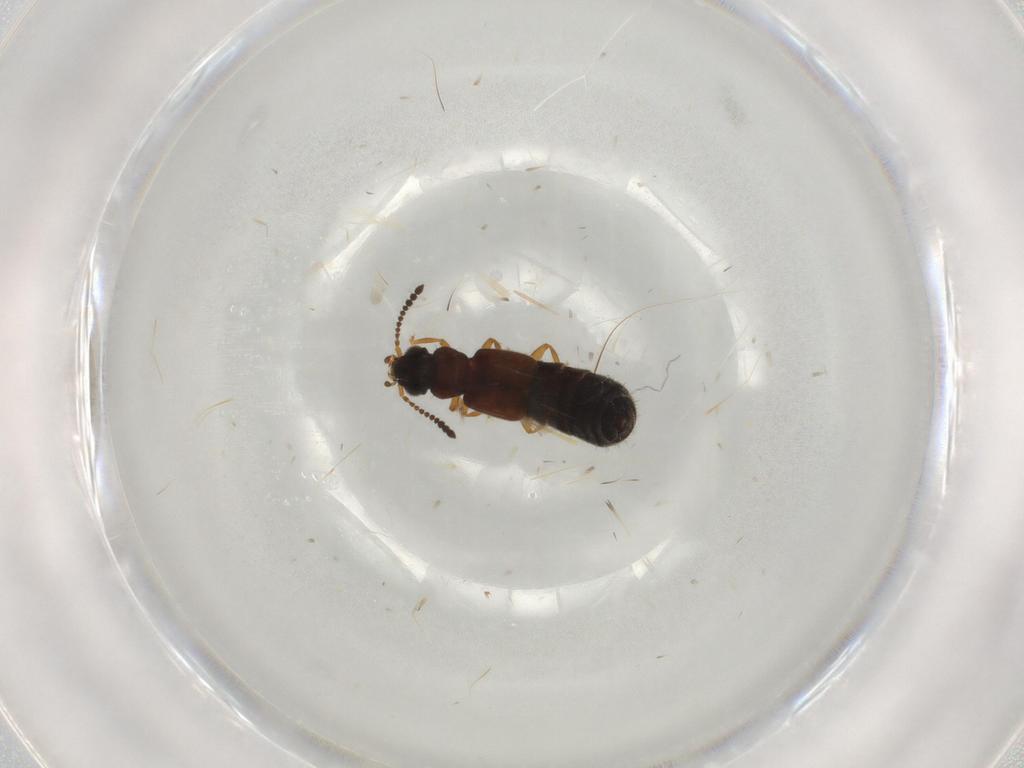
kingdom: Animalia
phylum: Arthropoda
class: Insecta
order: Coleoptera
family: Staphylinidae
